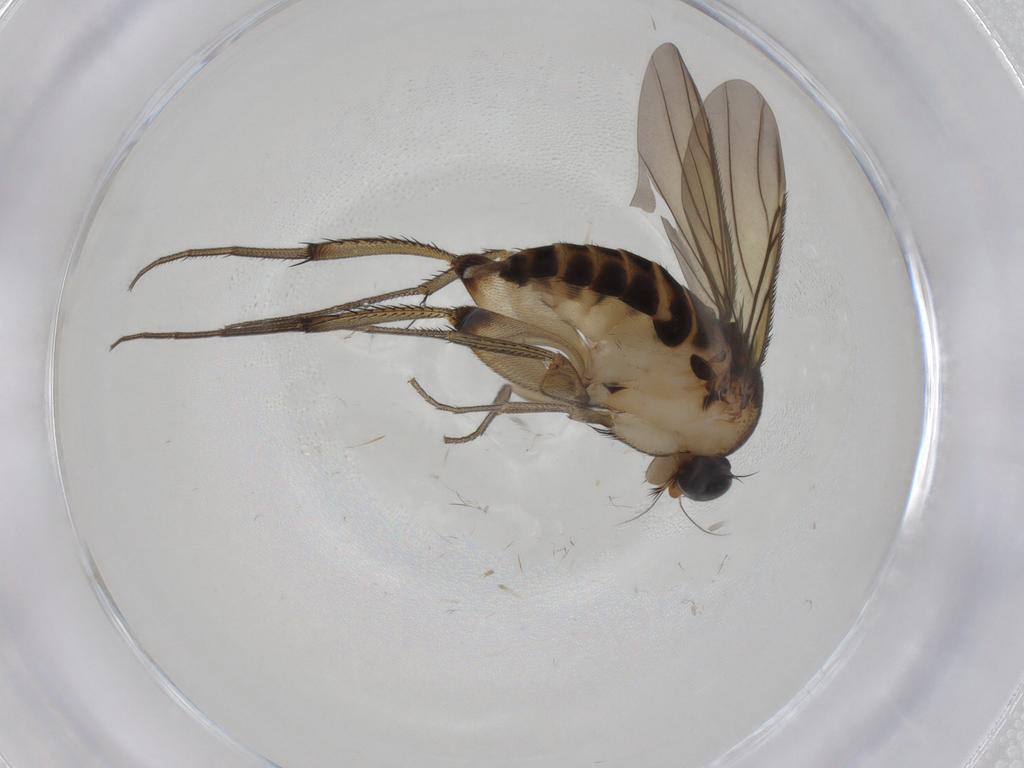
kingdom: Animalia
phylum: Arthropoda
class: Insecta
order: Diptera
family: Phoridae
